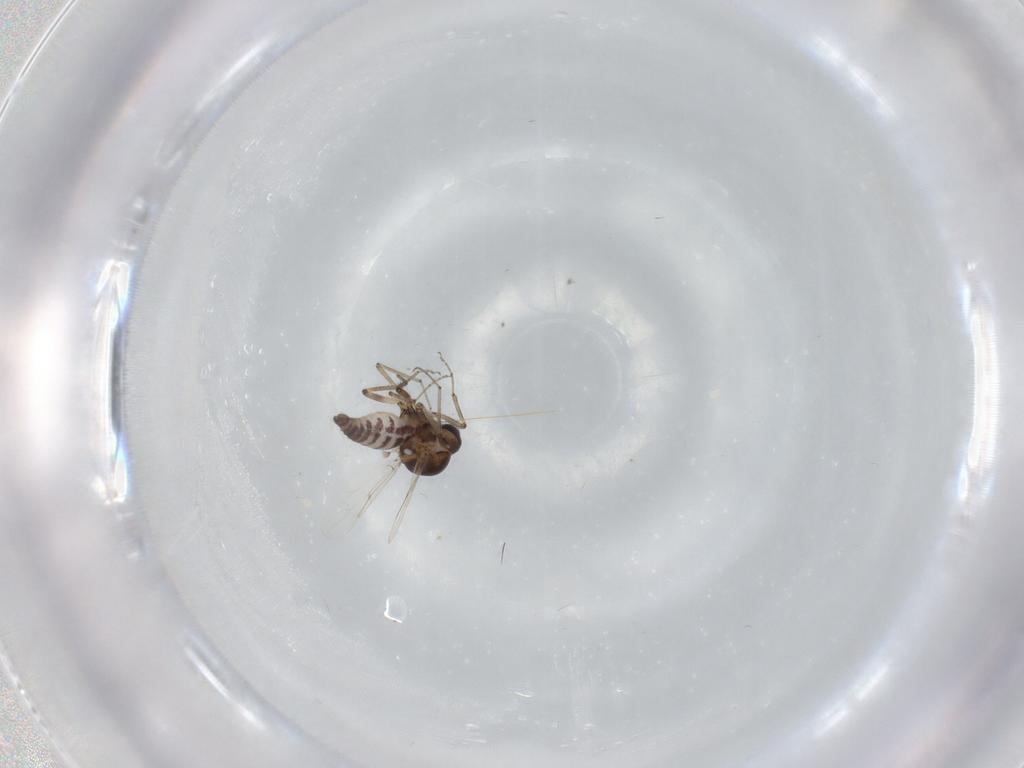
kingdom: Animalia
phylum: Arthropoda
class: Insecta
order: Diptera
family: Ceratopogonidae
